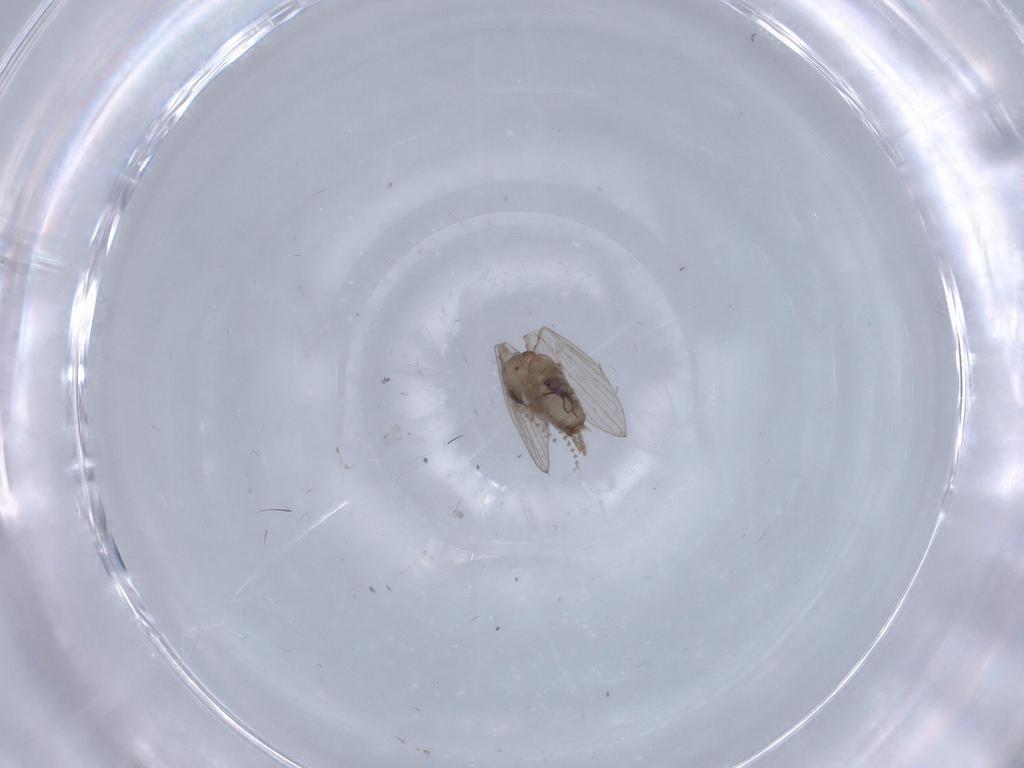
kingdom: Animalia
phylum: Arthropoda
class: Insecta
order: Diptera
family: Psychodidae
